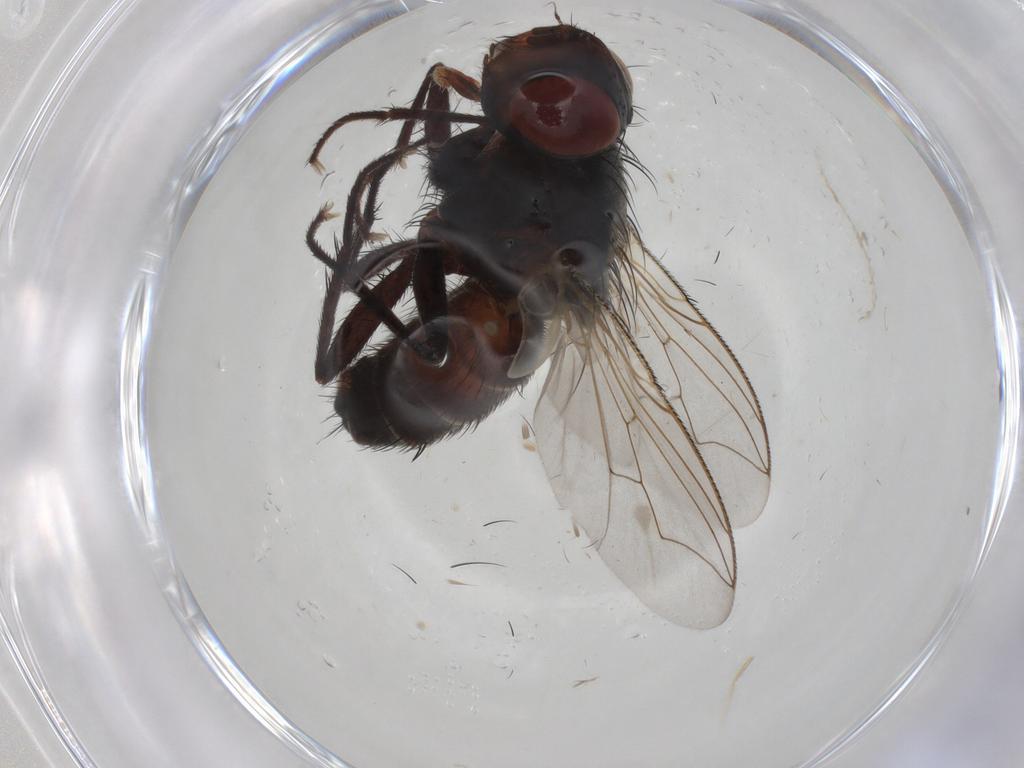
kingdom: Animalia
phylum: Arthropoda
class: Insecta
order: Diptera
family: Sarcophagidae
